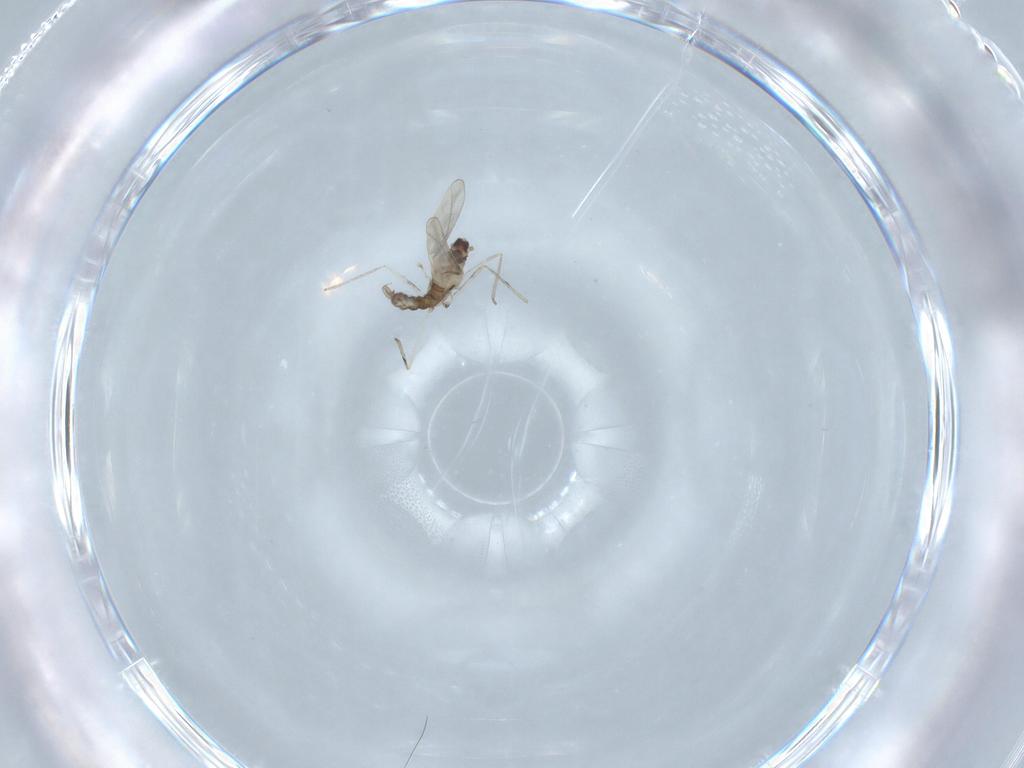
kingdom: Animalia
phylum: Arthropoda
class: Insecta
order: Diptera
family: Cecidomyiidae
